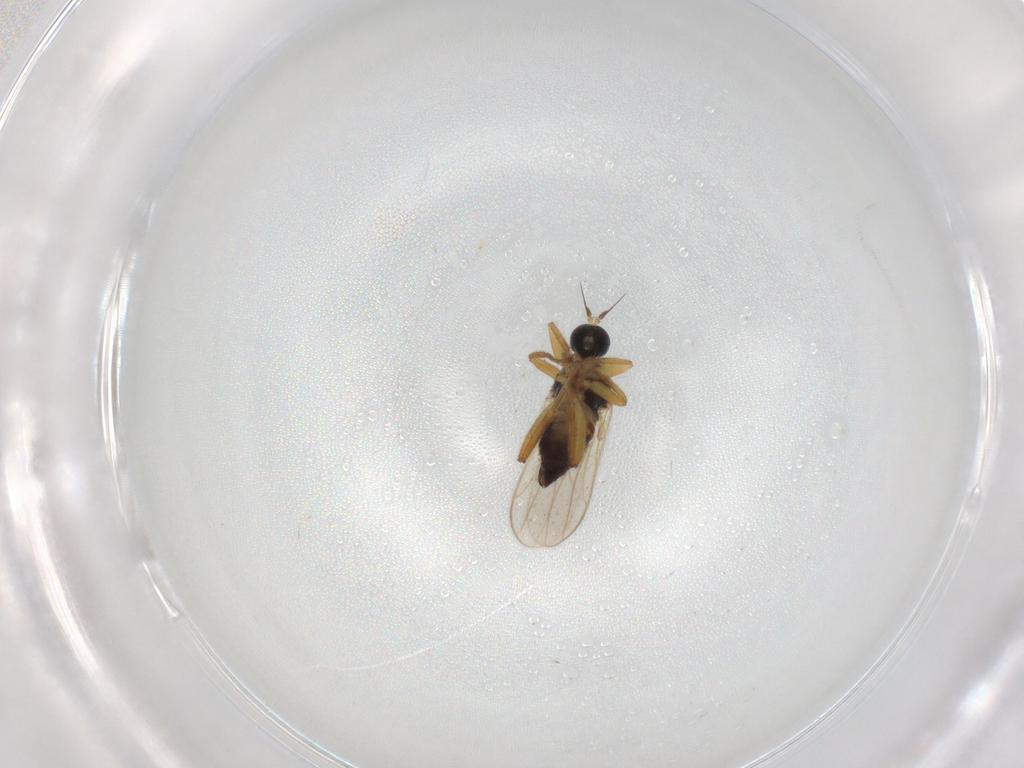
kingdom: Animalia
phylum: Arthropoda
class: Insecta
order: Diptera
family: Hybotidae
